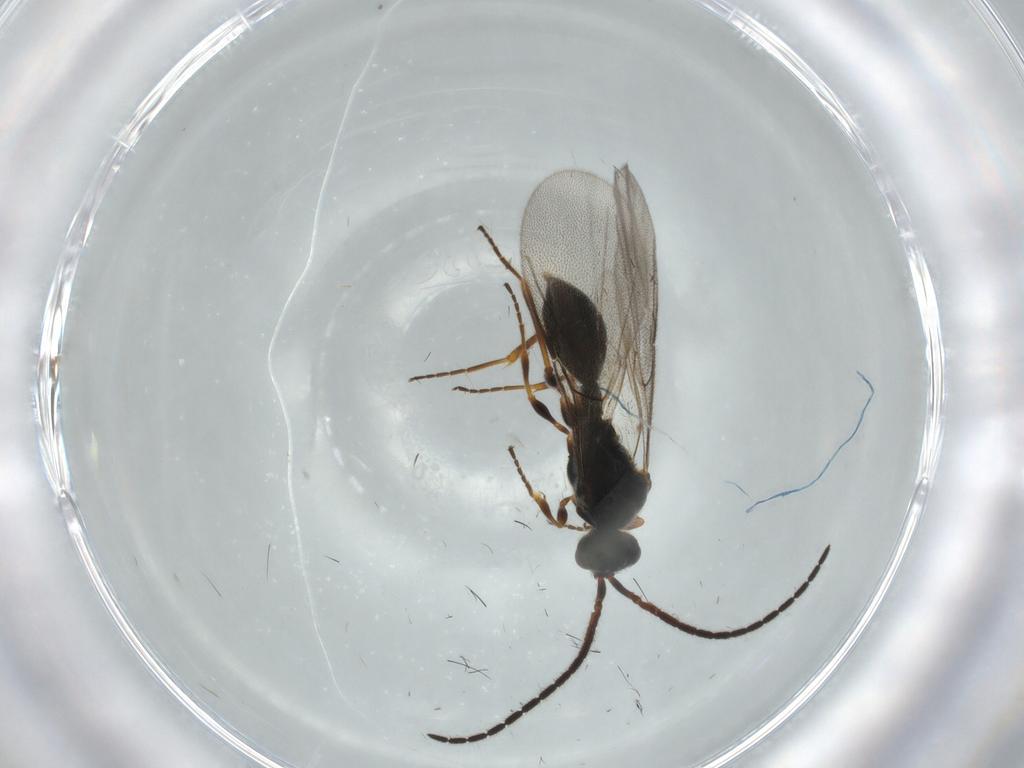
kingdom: Animalia
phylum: Arthropoda
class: Insecta
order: Hymenoptera
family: Diapriidae
